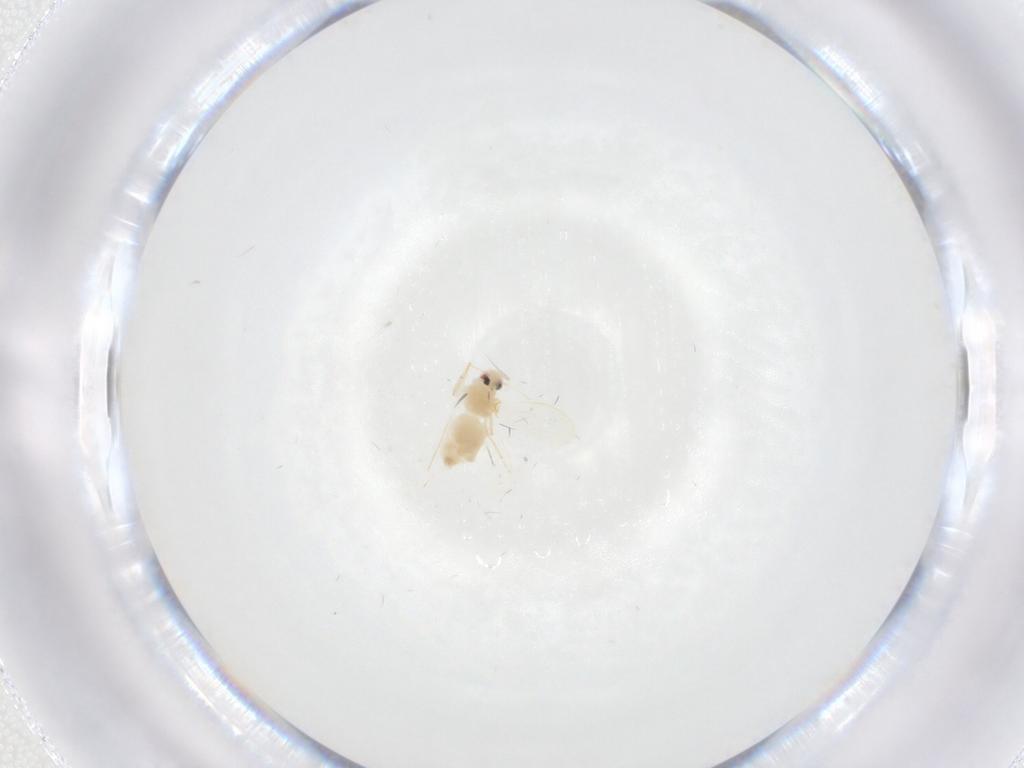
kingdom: Animalia
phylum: Arthropoda
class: Insecta
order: Hemiptera
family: Aleyrodidae
